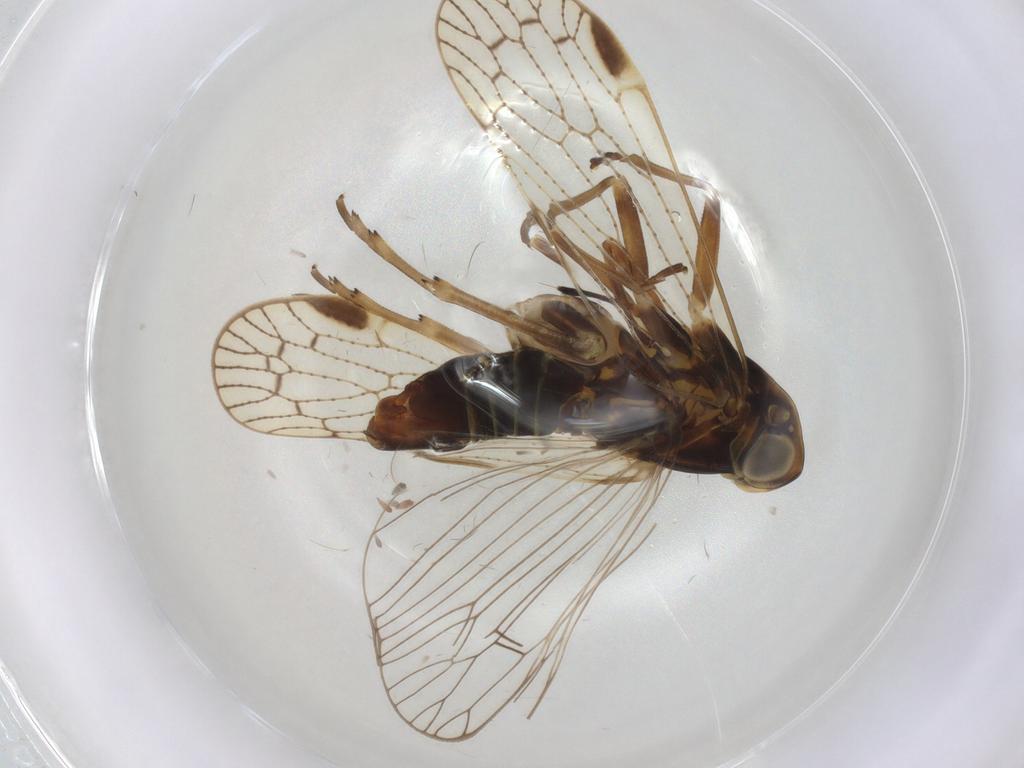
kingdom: Animalia
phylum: Arthropoda
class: Insecta
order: Hemiptera
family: Cixiidae
